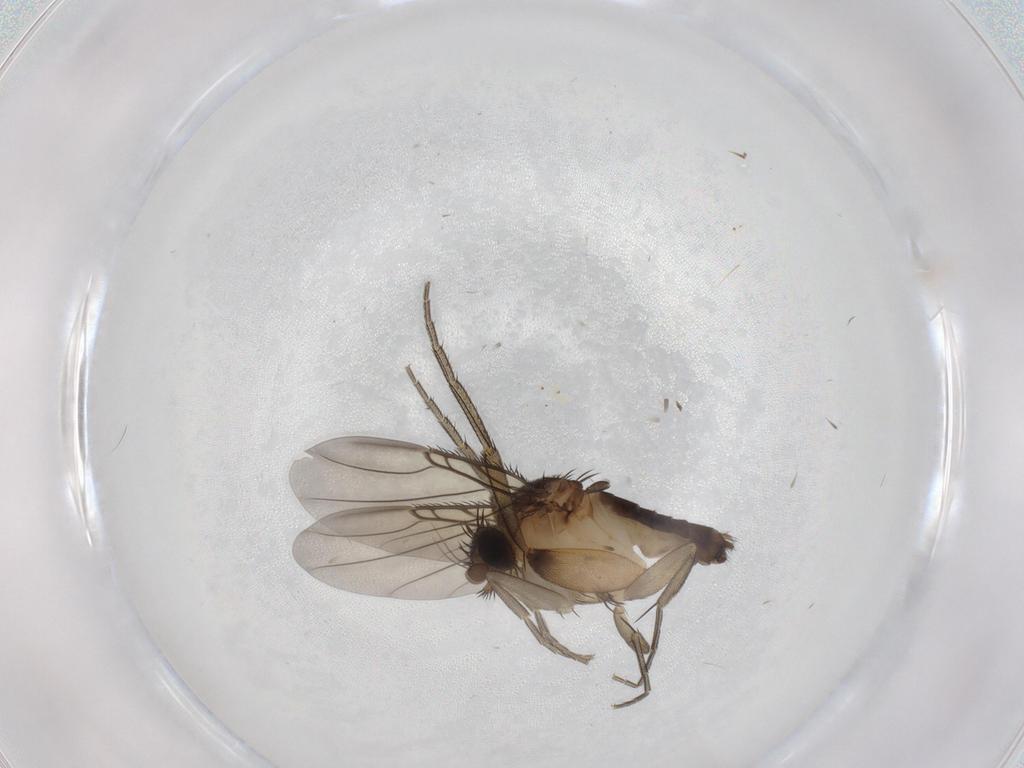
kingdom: Animalia
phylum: Arthropoda
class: Insecta
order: Diptera
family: Phoridae
